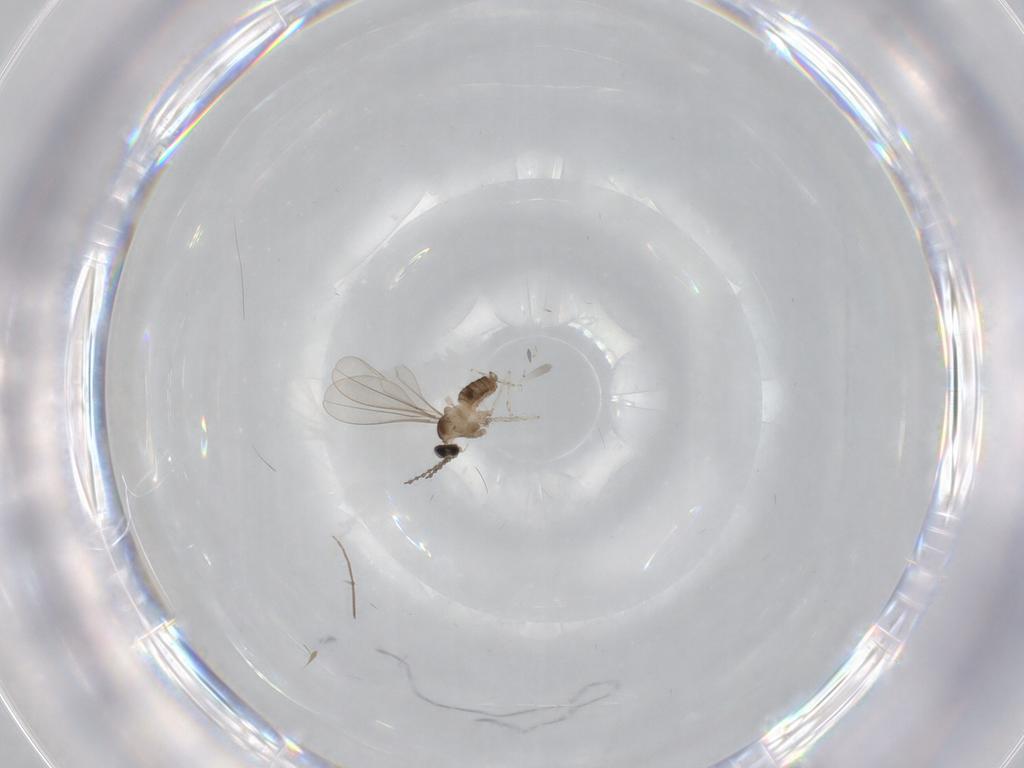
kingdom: Animalia
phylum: Arthropoda
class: Insecta
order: Diptera
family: Cecidomyiidae
